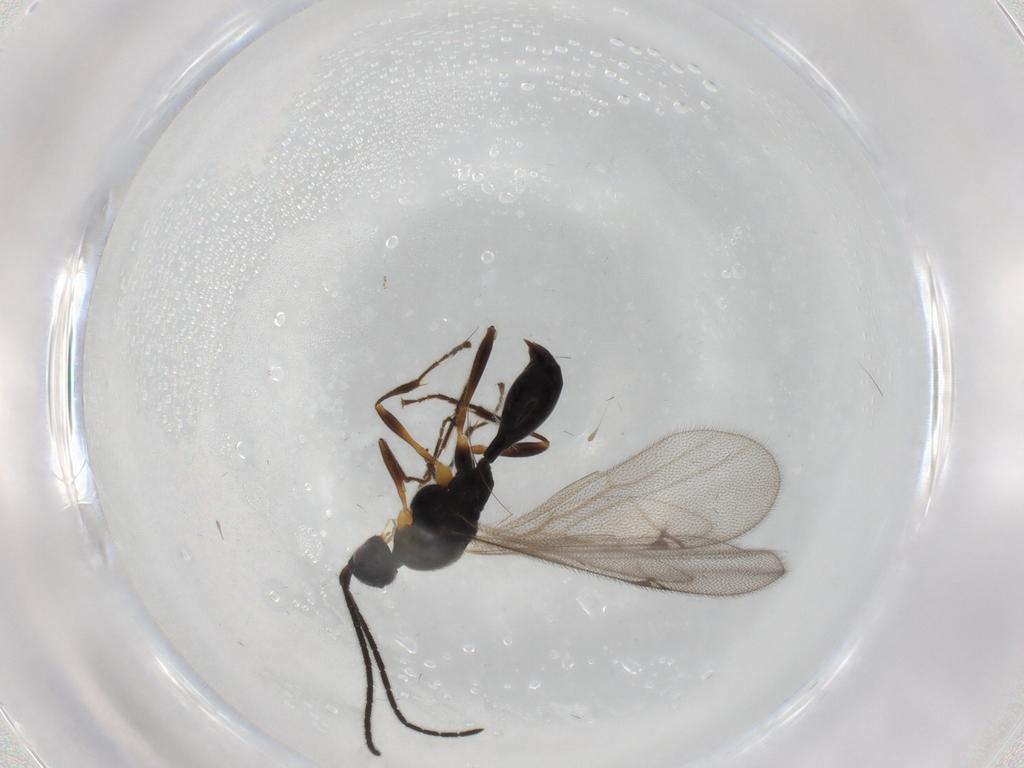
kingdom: Animalia
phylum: Arthropoda
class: Insecta
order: Hymenoptera
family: Proctotrupidae
